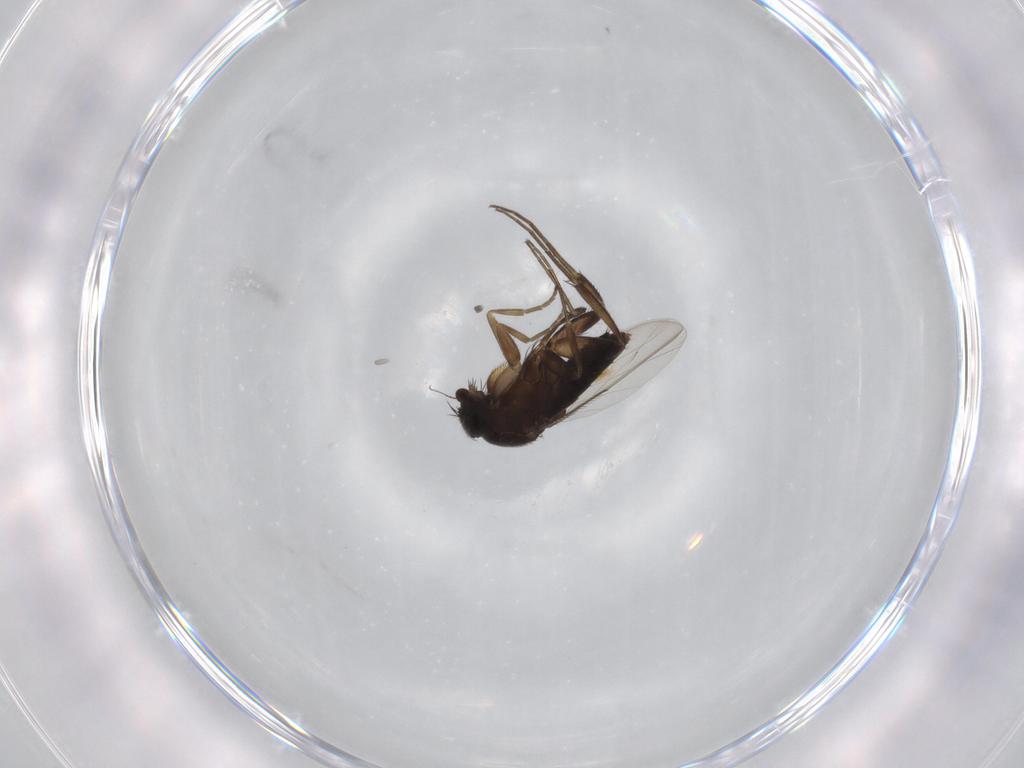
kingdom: Animalia
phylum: Arthropoda
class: Insecta
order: Diptera
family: Phoridae
